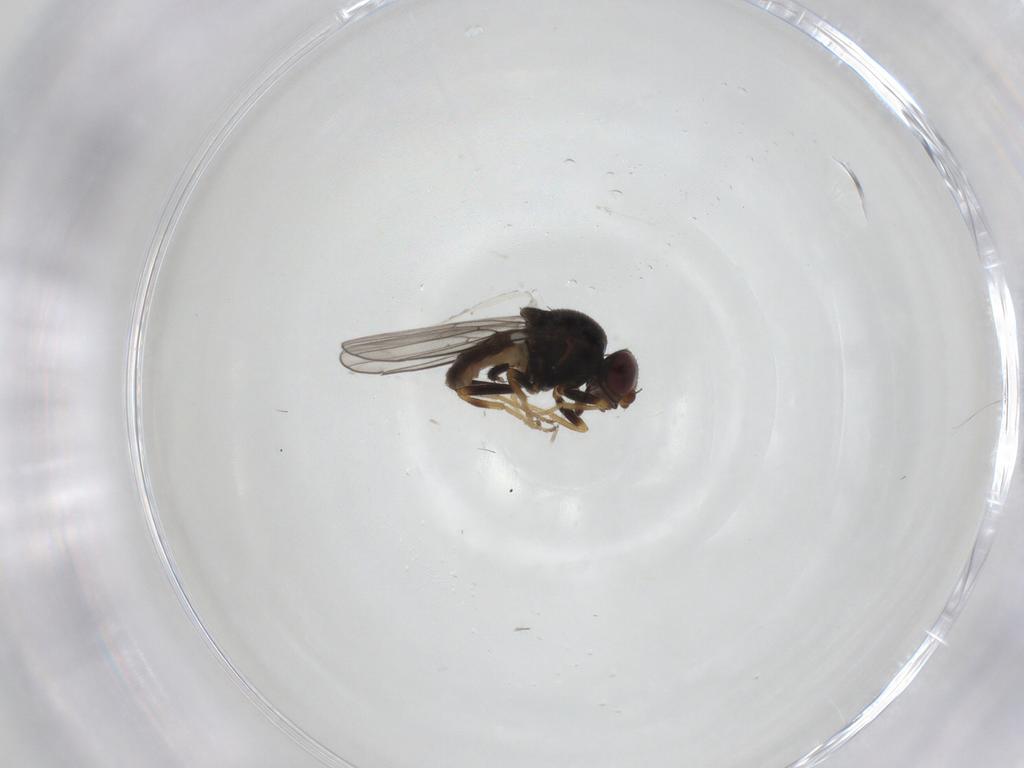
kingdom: Animalia
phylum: Arthropoda
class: Insecta
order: Diptera
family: Chloropidae
